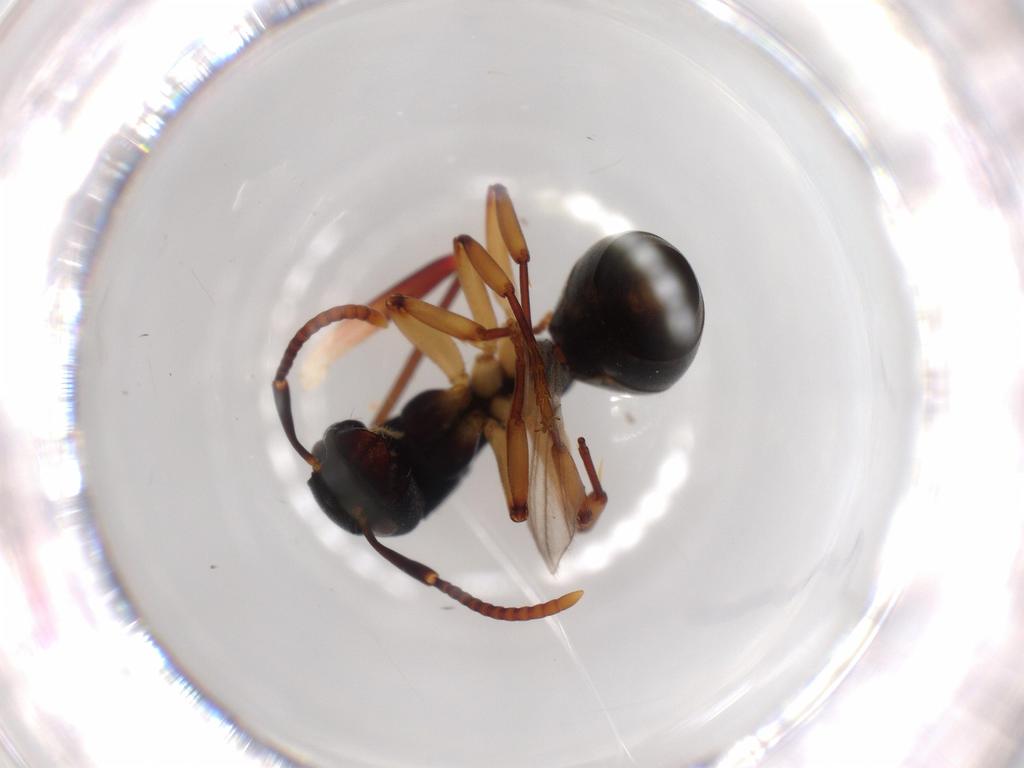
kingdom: Animalia
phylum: Arthropoda
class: Insecta
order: Hymenoptera
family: Formicidae
